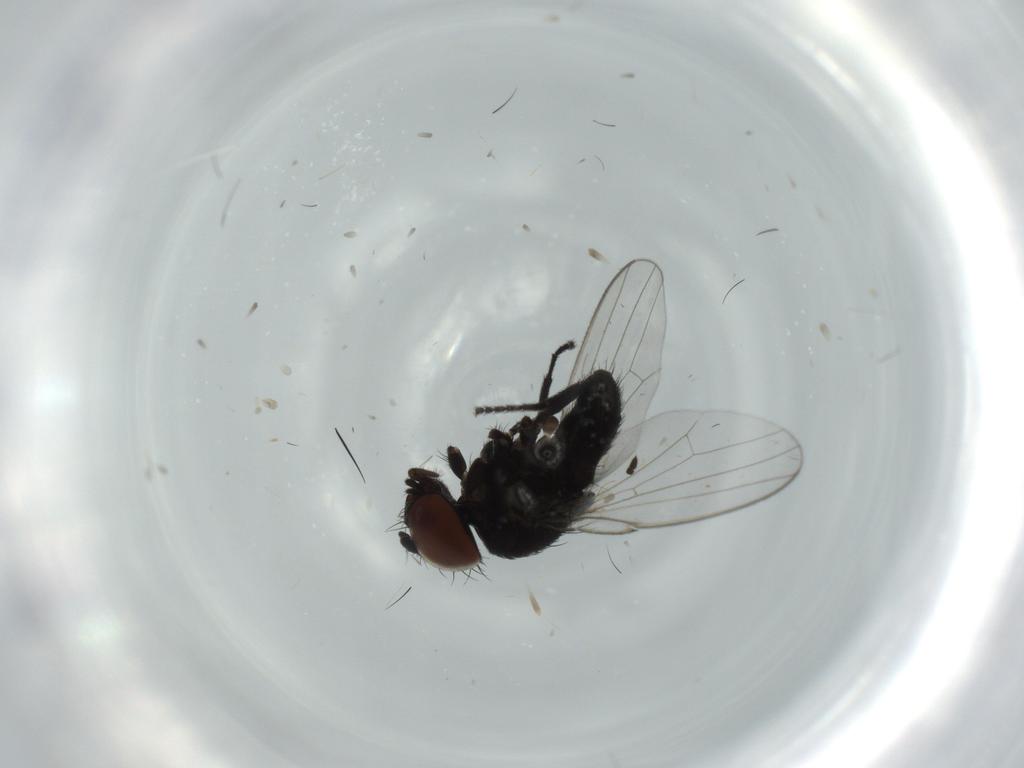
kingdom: Animalia
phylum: Arthropoda
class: Insecta
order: Diptera
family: Milichiidae
